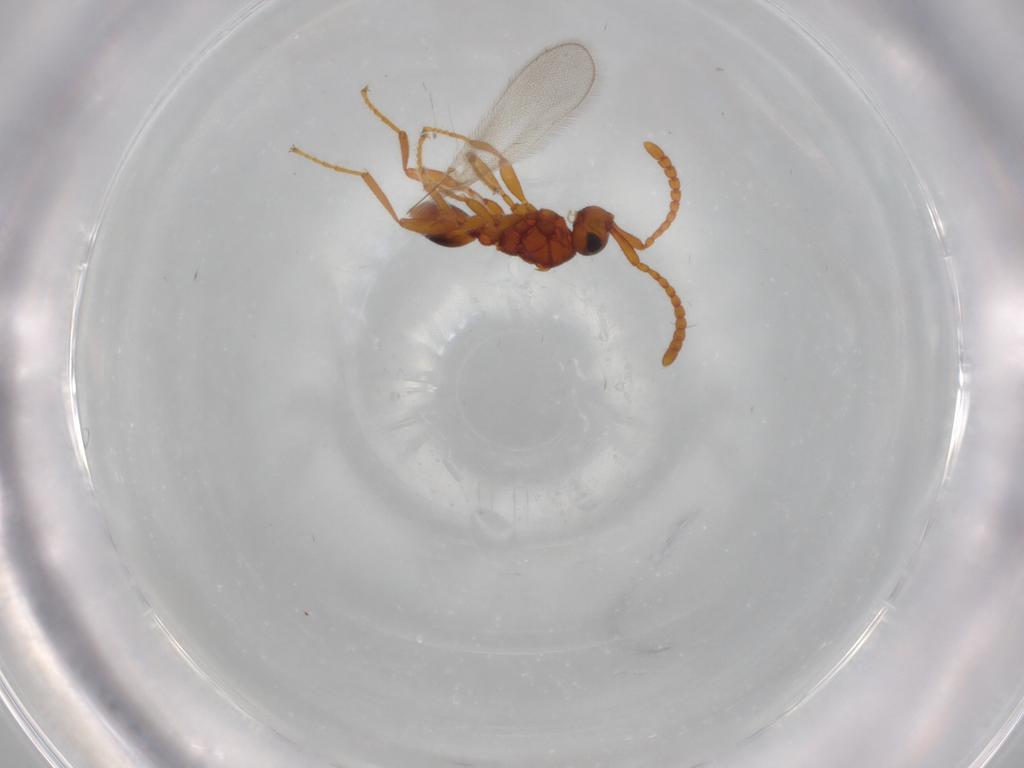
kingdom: Animalia
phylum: Arthropoda
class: Insecta
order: Hymenoptera
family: Diapriidae
